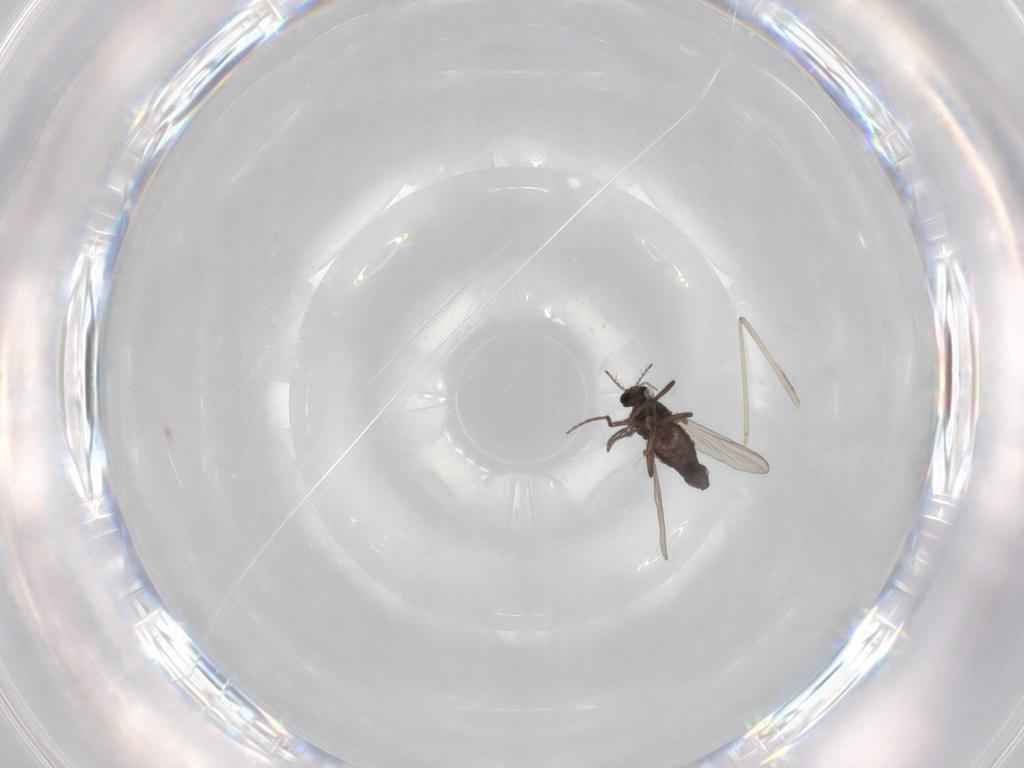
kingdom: Animalia
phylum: Arthropoda
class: Insecta
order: Diptera
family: Chironomidae
